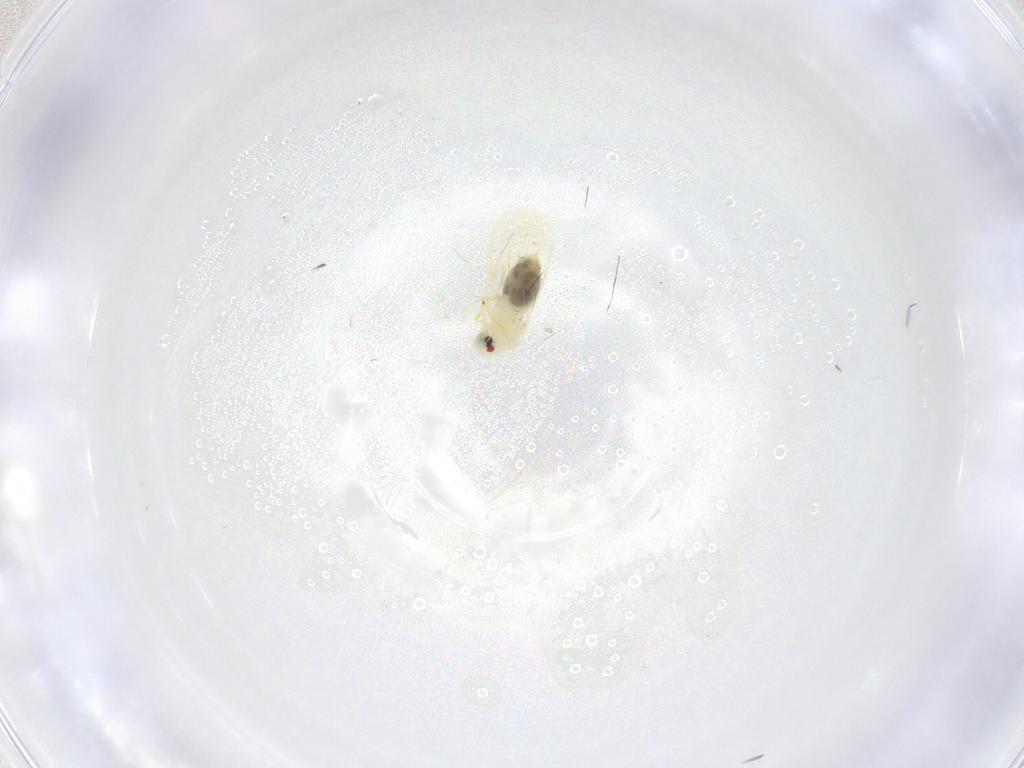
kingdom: Animalia
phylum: Arthropoda
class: Insecta
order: Hemiptera
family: Aleyrodidae
